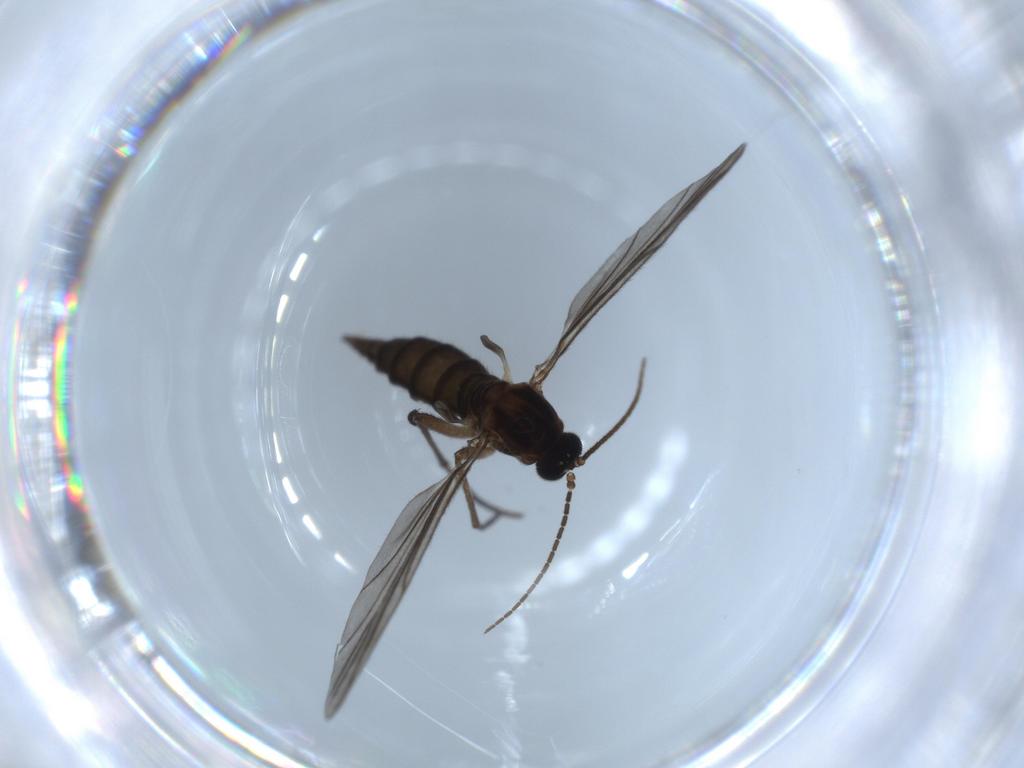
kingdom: Animalia
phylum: Arthropoda
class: Insecta
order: Diptera
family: Sciaridae
